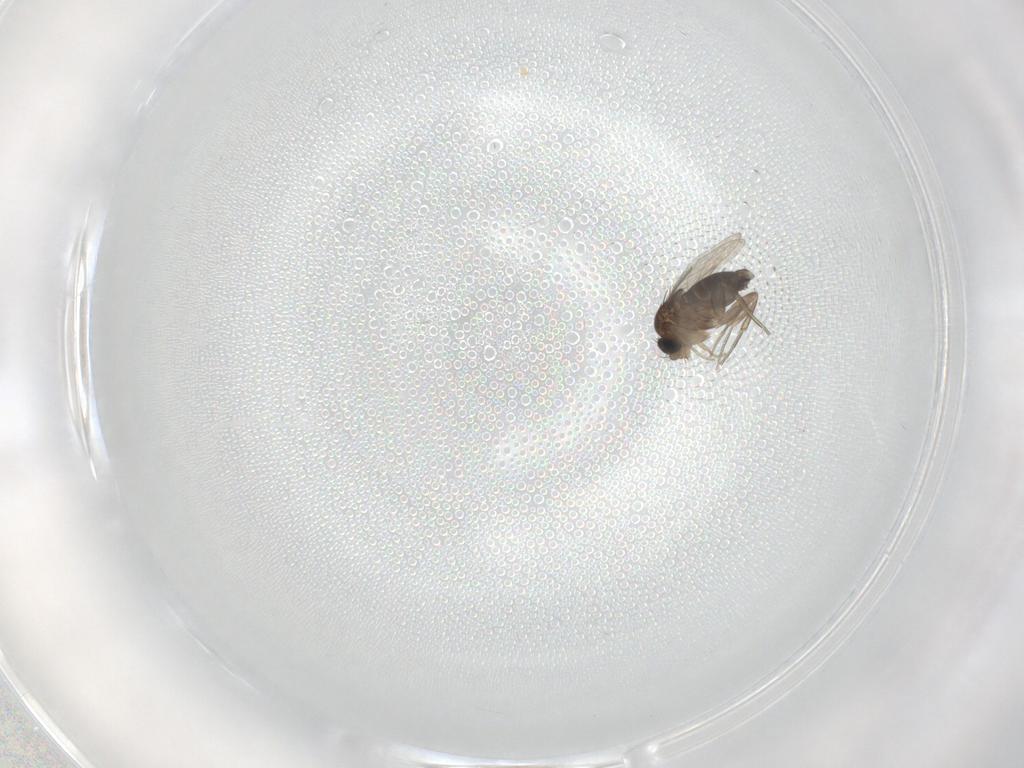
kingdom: Animalia
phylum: Arthropoda
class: Insecta
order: Diptera
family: Phoridae
